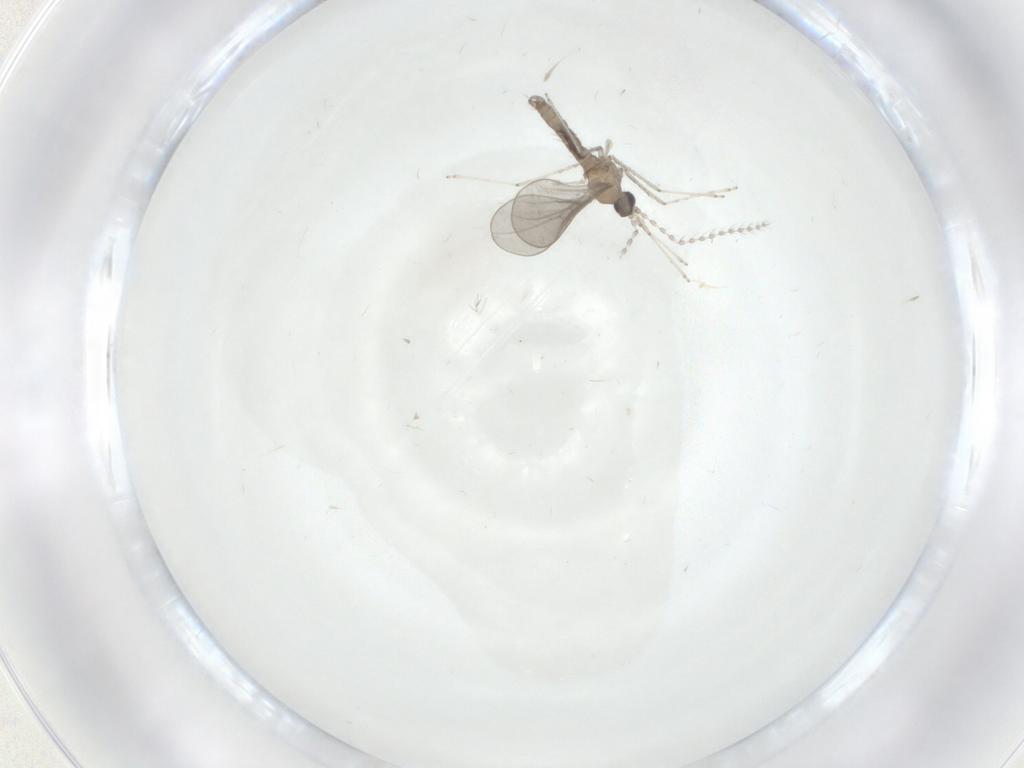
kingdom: Animalia
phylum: Arthropoda
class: Insecta
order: Diptera
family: Cecidomyiidae
